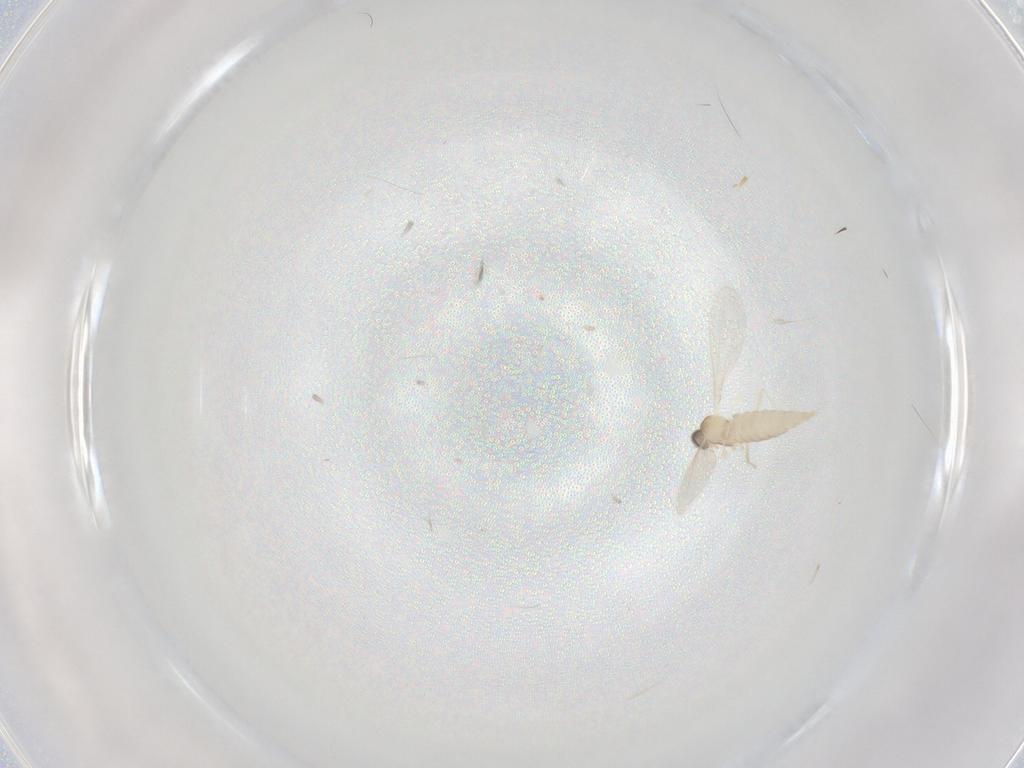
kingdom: Animalia
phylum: Arthropoda
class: Insecta
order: Diptera
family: Cecidomyiidae
